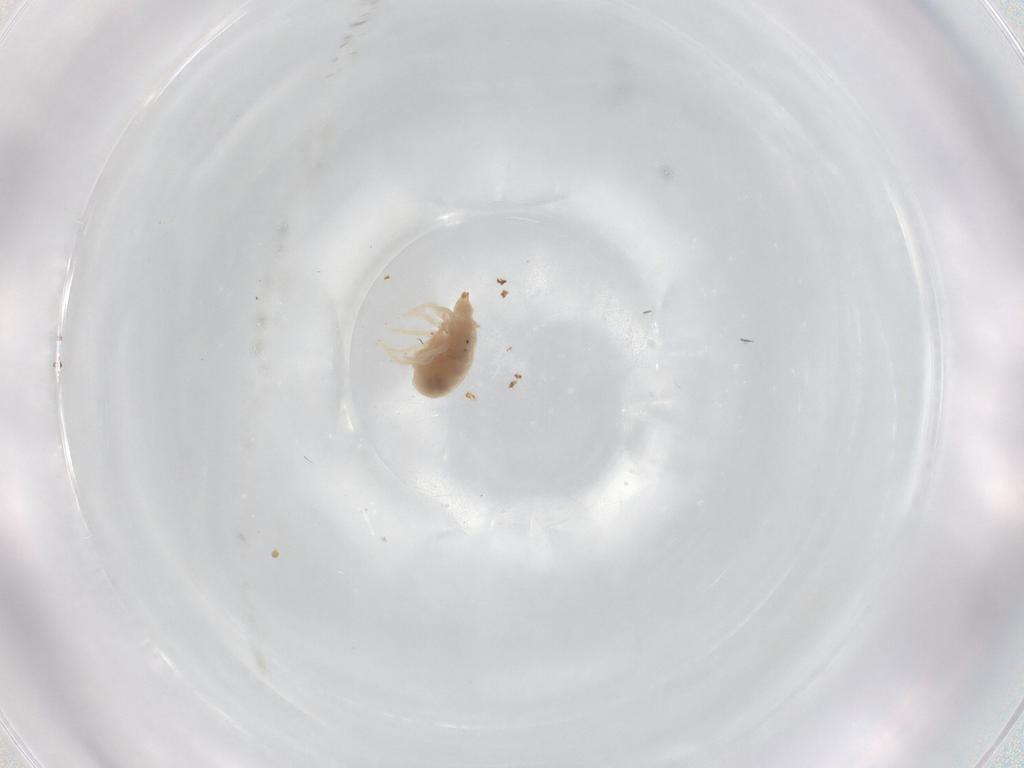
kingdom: Animalia
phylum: Arthropoda
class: Arachnida
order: Trombidiformes
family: Bdellidae
